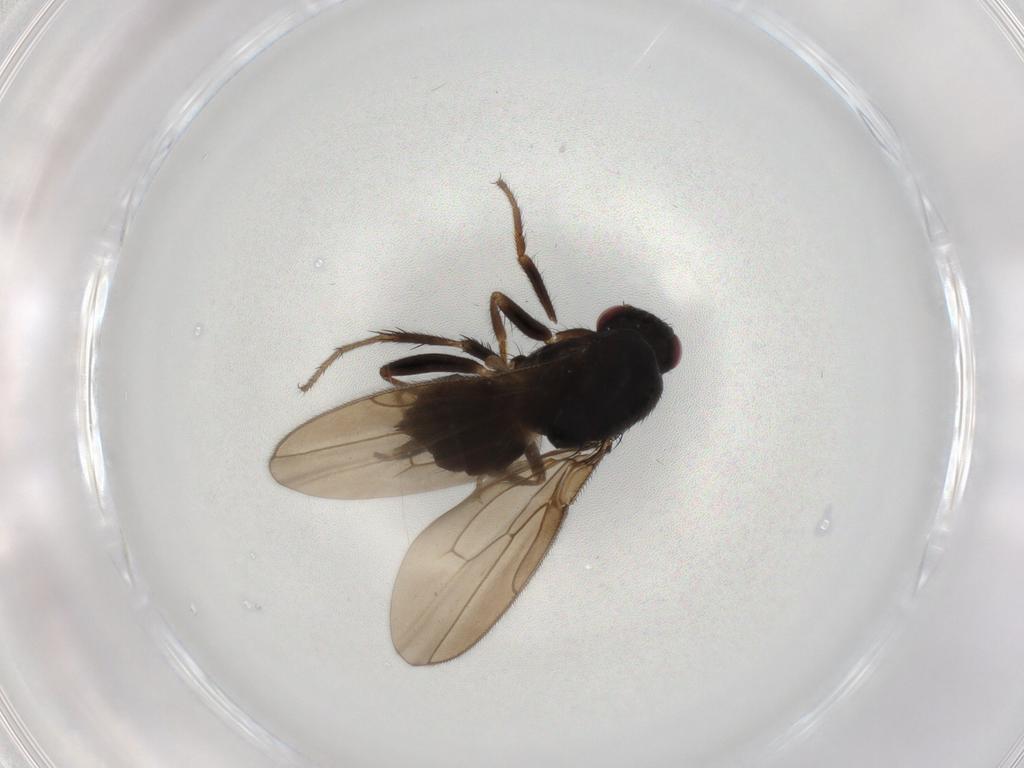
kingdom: Animalia
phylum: Arthropoda
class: Insecta
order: Diptera
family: Sphaeroceridae
